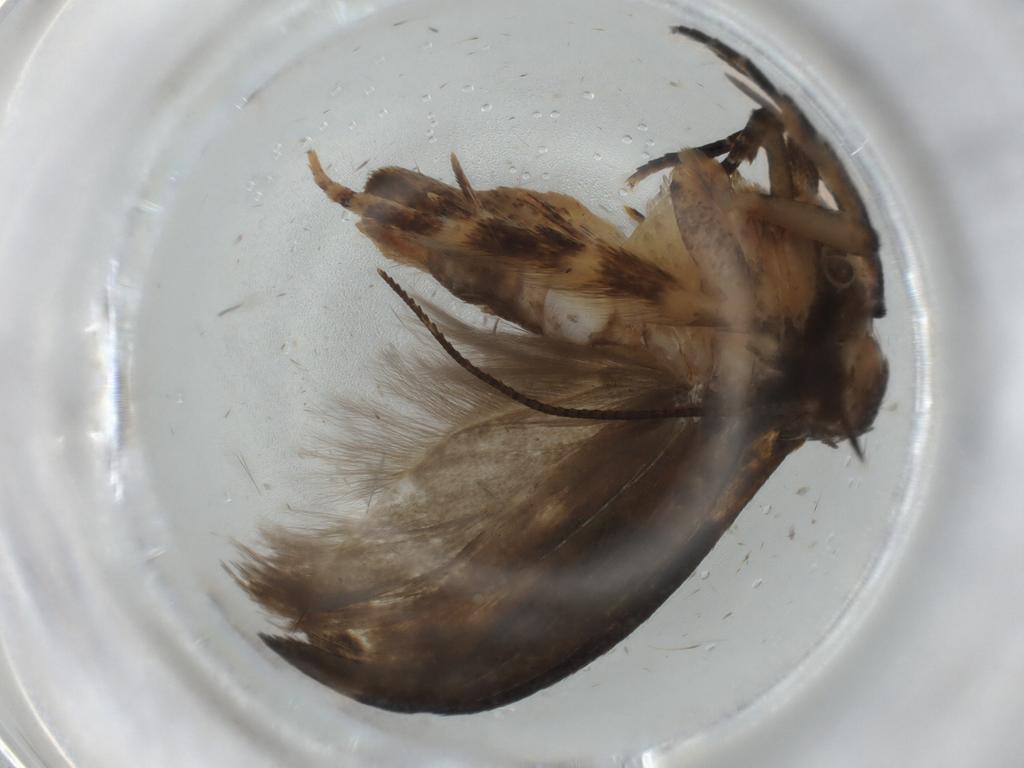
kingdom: Animalia
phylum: Arthropoda
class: Insecta
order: Lepidoptera
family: Gelechiidae
